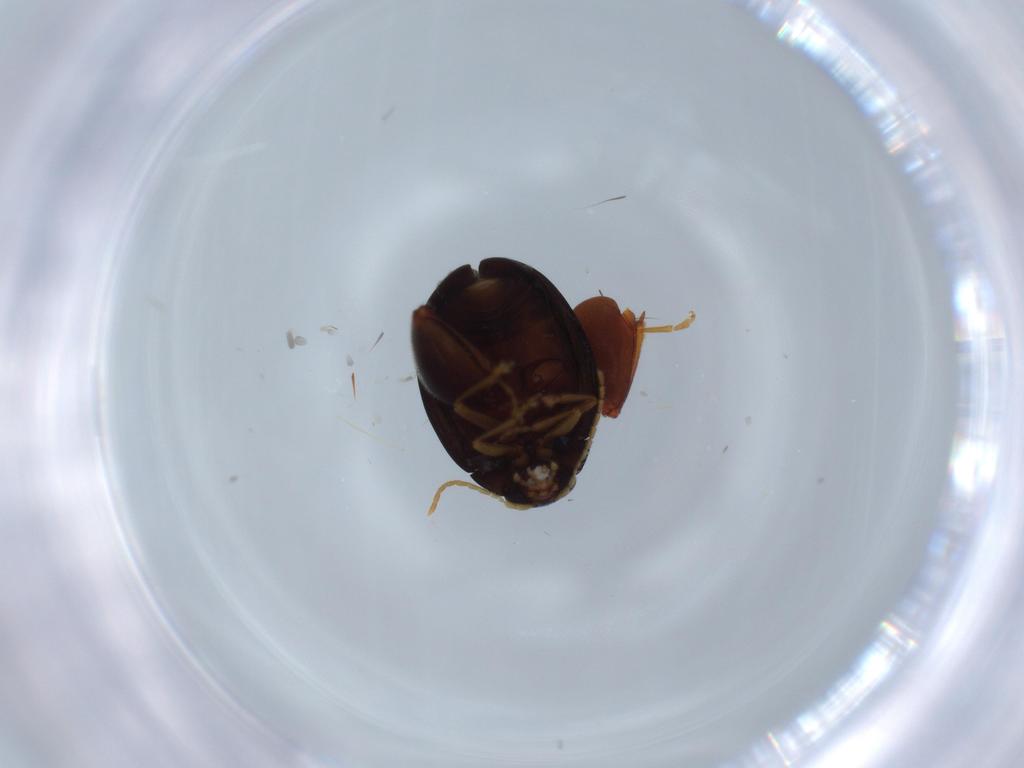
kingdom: Animalia
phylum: Arthropoda
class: Insecta
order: Coleoptera
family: Chrysomelidae
